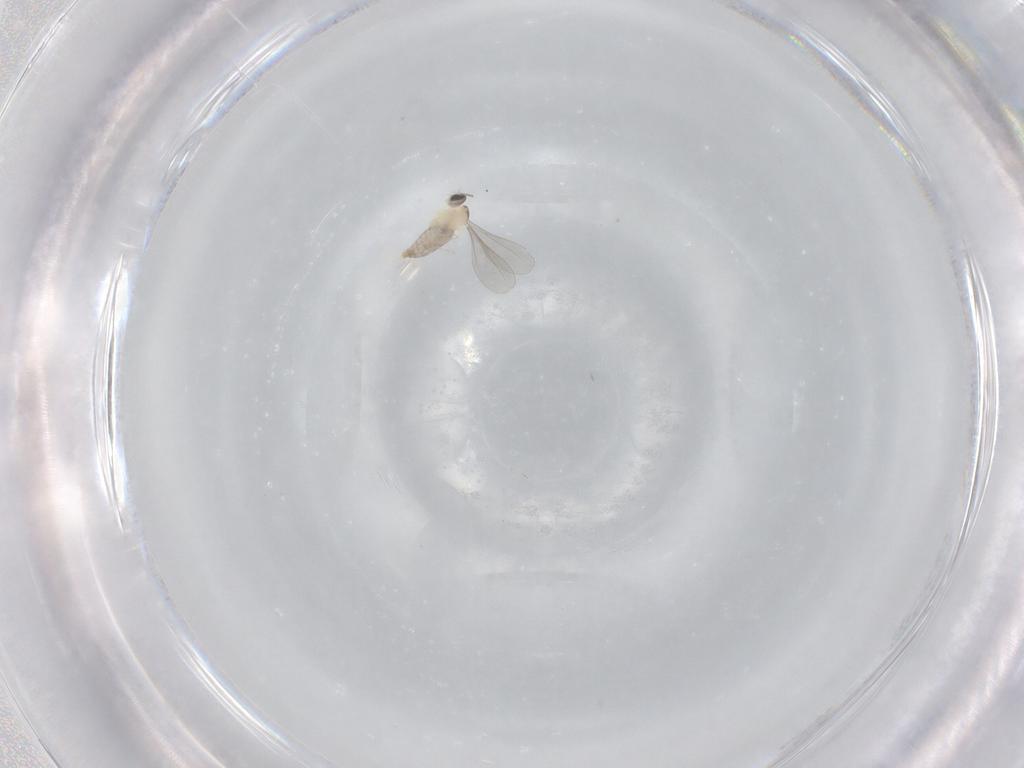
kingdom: Animalia
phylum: Arthropoda
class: Insecta
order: Diptera
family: Sciaridae
